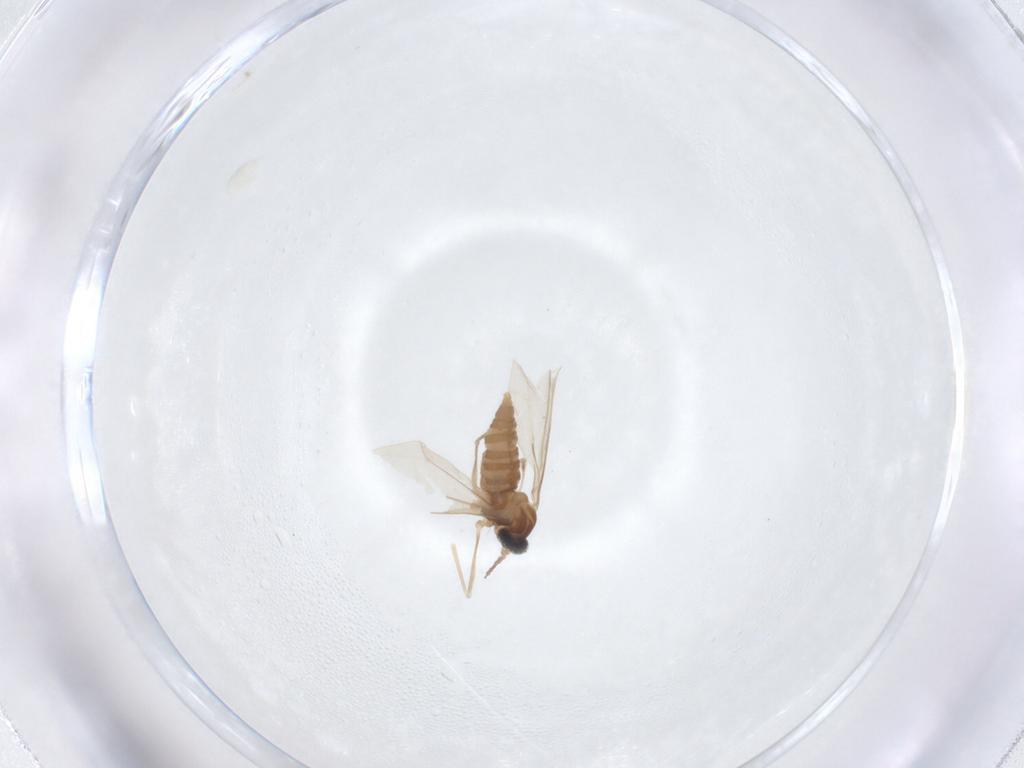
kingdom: Animalia
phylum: Arthropoda
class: Insecta
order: Diptera
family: Cecidomyiidae
